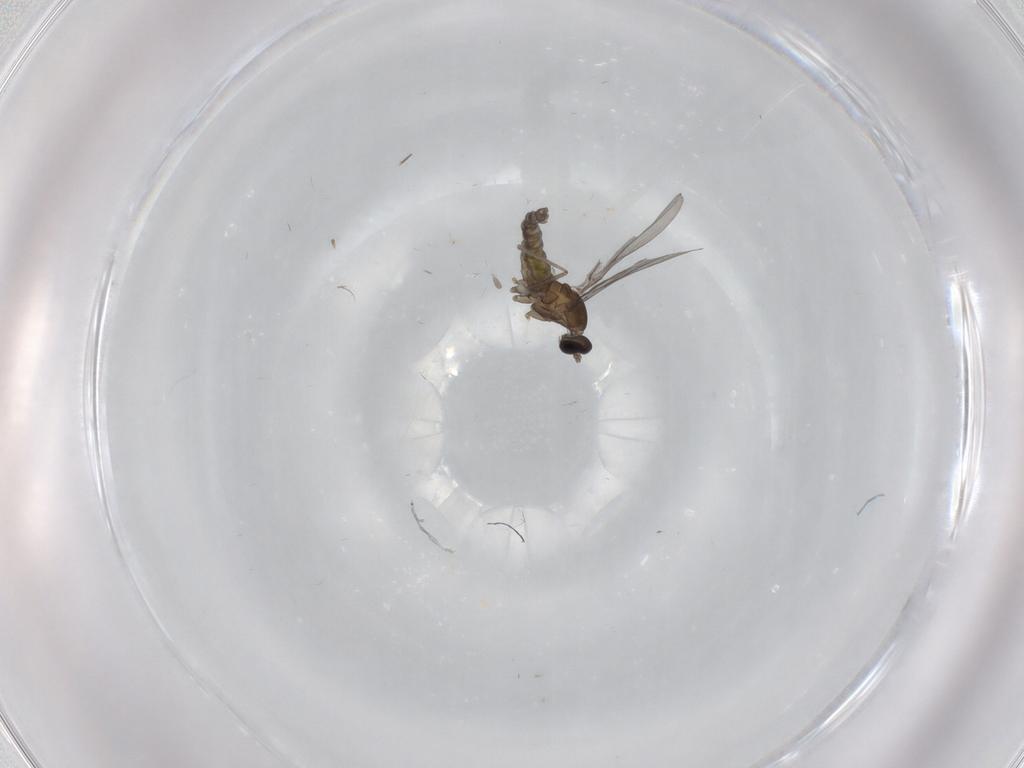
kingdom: Animalia
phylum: Arthropoda
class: Insecta
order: Diptera
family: Cecidomyiidae
